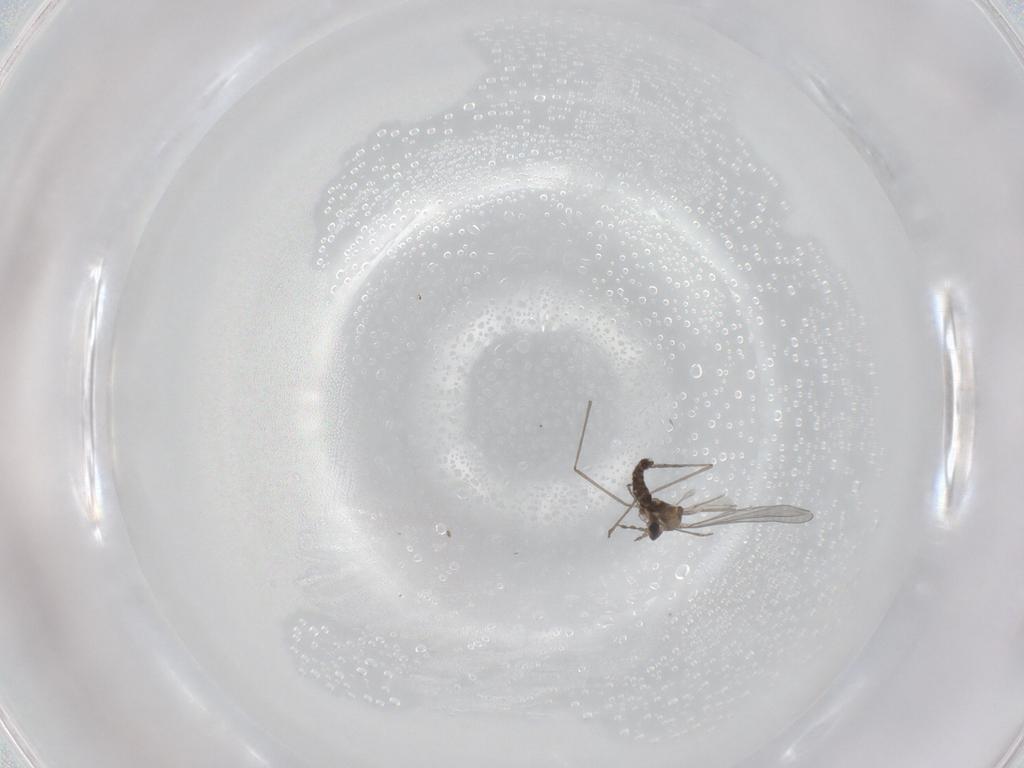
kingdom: Animalia
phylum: Arthropoda
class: Insecta
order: Diptera
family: Cecidomyiidae
